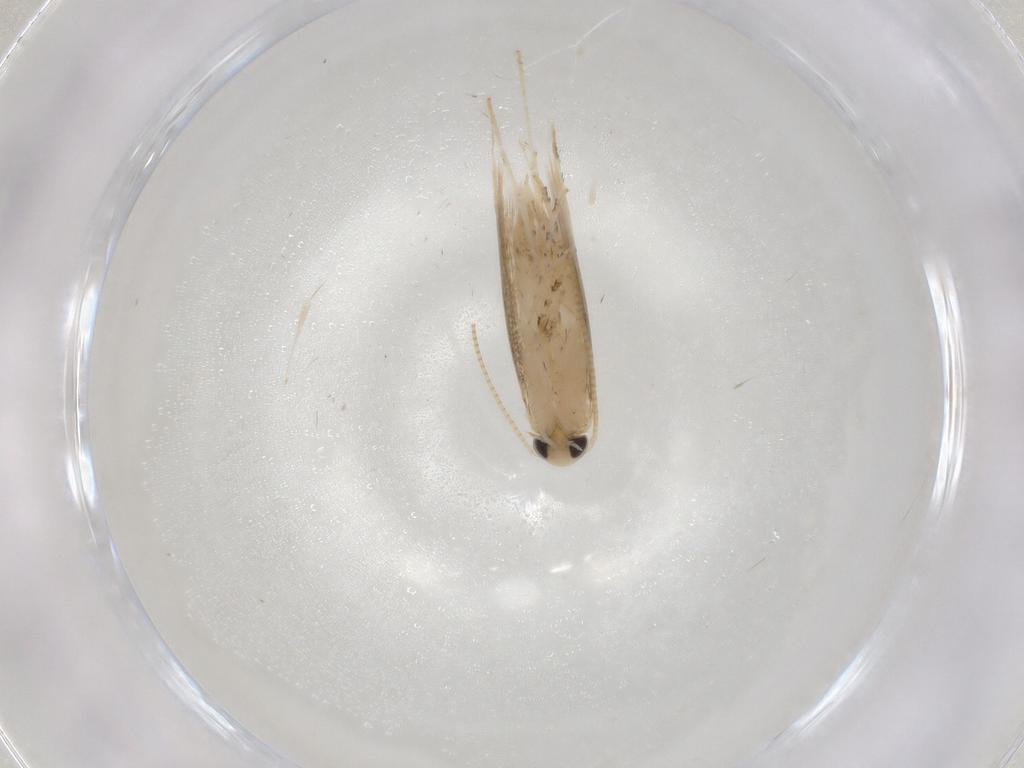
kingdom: Animalia
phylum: Arthropoda
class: Insecta
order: Lepidoptera
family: Gracillariidae
